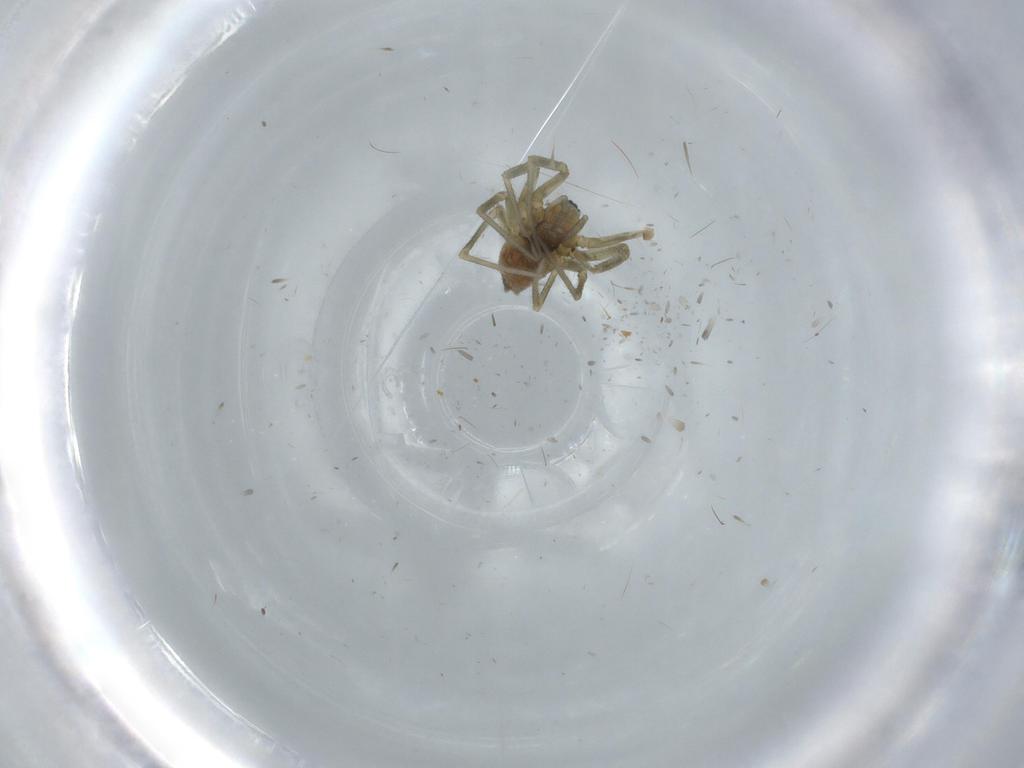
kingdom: Animalia
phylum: Arthropoda
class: Arachnida
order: Araneae
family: Linyphiidae
